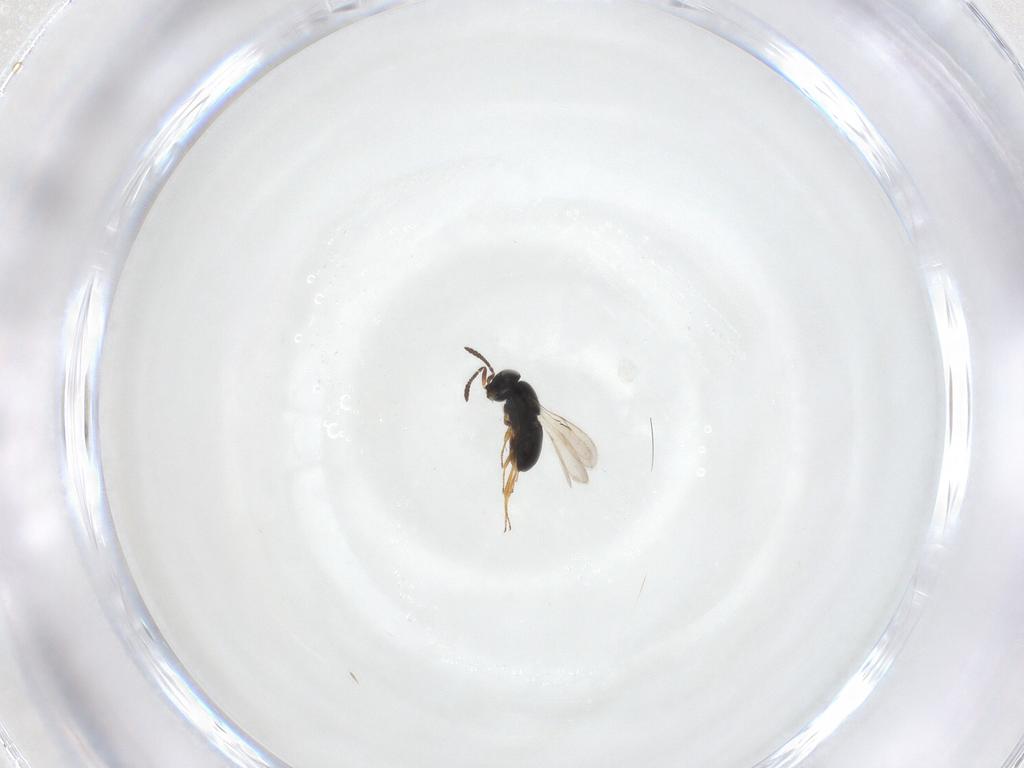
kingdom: Animalia
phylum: Arthropoda
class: Insecta
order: Hymenoptera
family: Scelionidae
